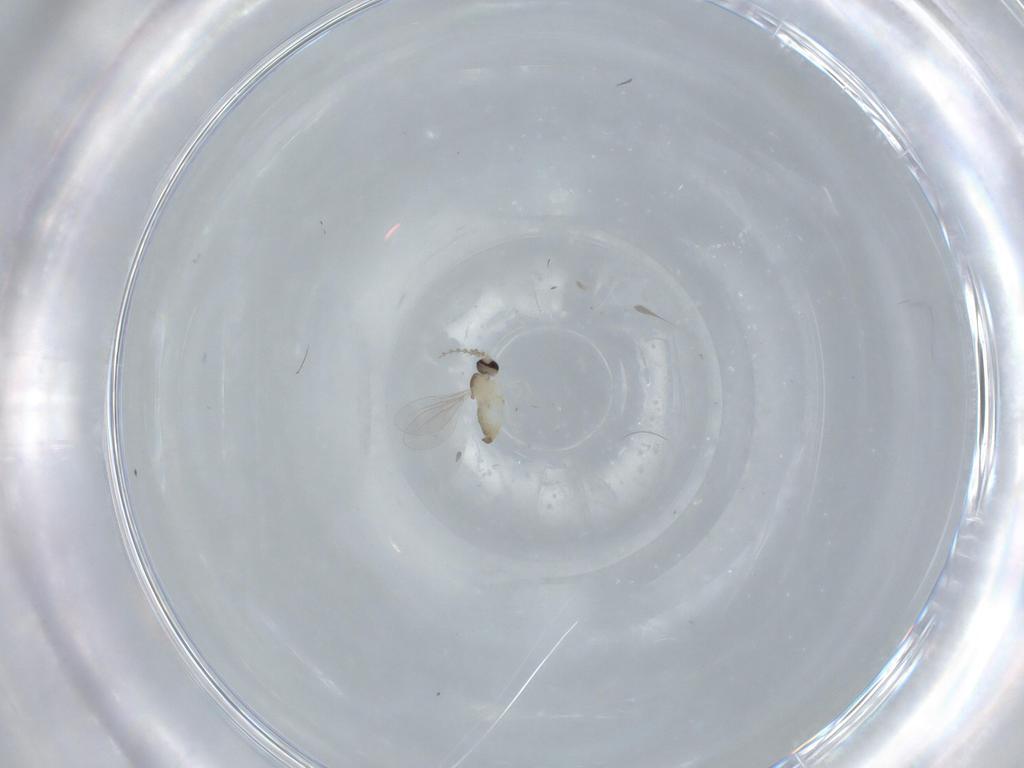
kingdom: Animalia
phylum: Arthropoda
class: Insecta
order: Diptera
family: Cecidomyiidae
